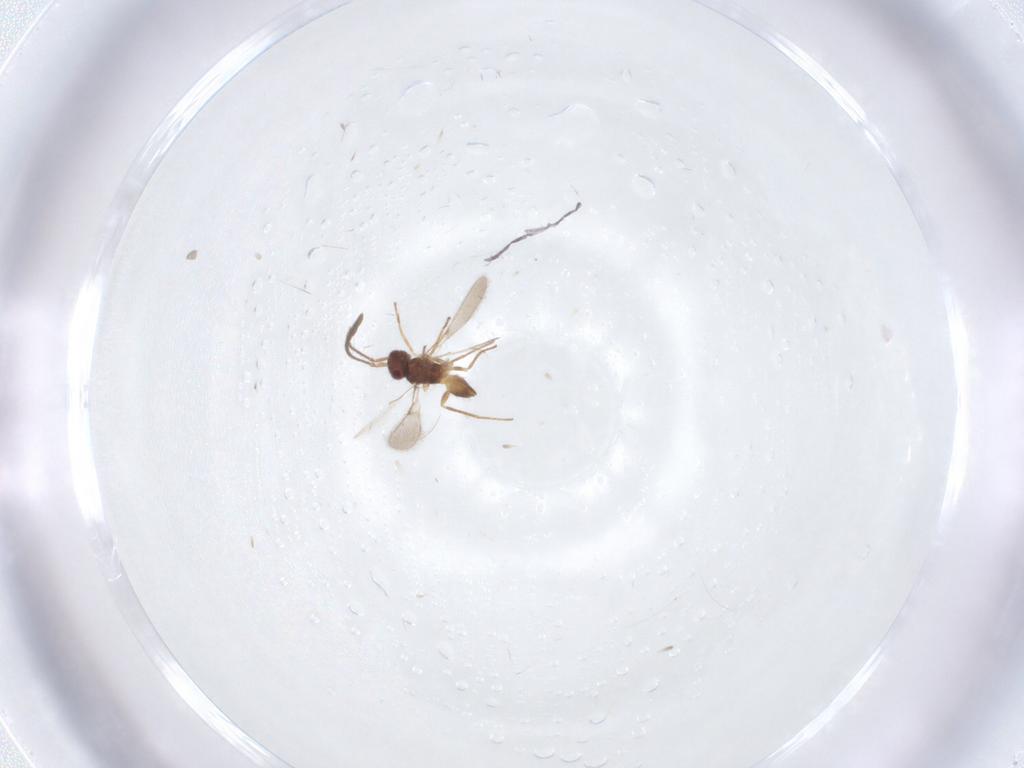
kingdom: Animalia
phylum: Arthropoda
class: Insecta
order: Hymenoptera
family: Mymaridae
